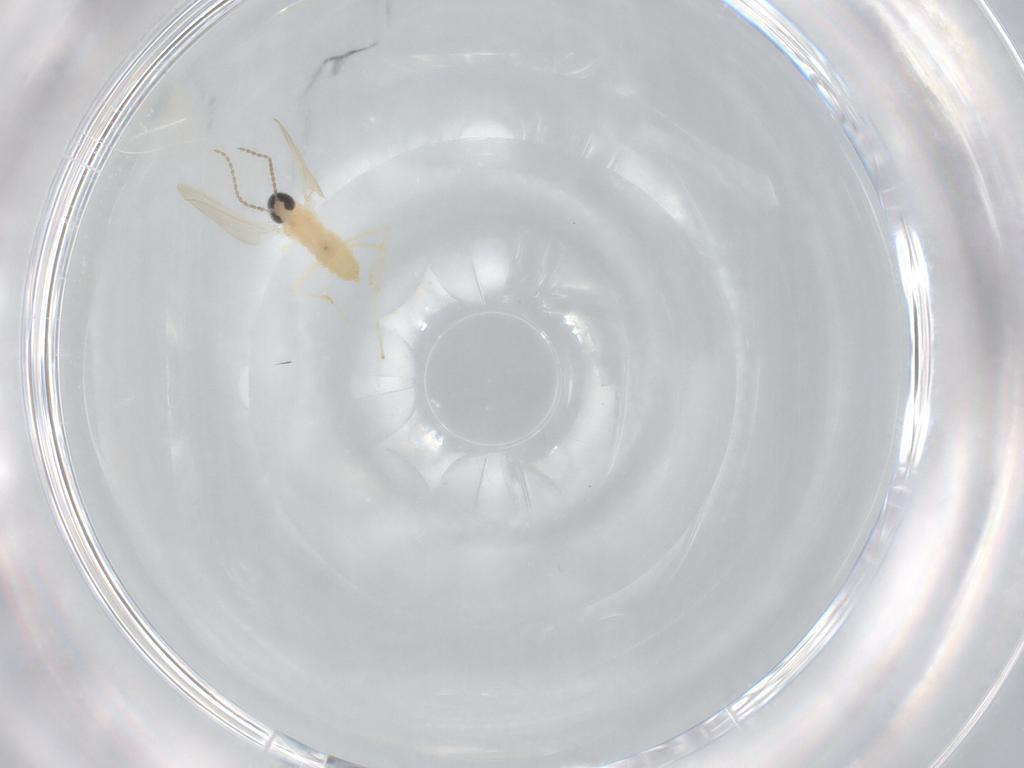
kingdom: Animalia
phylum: Arthropoda
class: Insecta
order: Diptera
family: Cecidomyiidae
